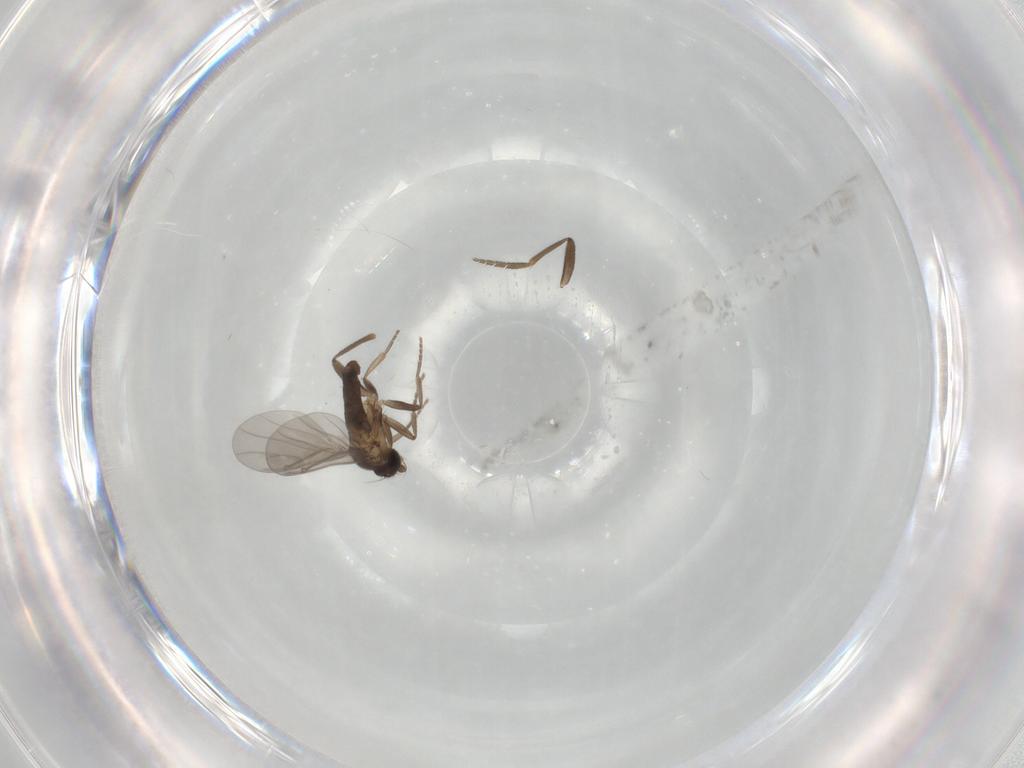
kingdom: Animalia
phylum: Arthropoda
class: Insecta
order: Diptera
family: Phoridae
